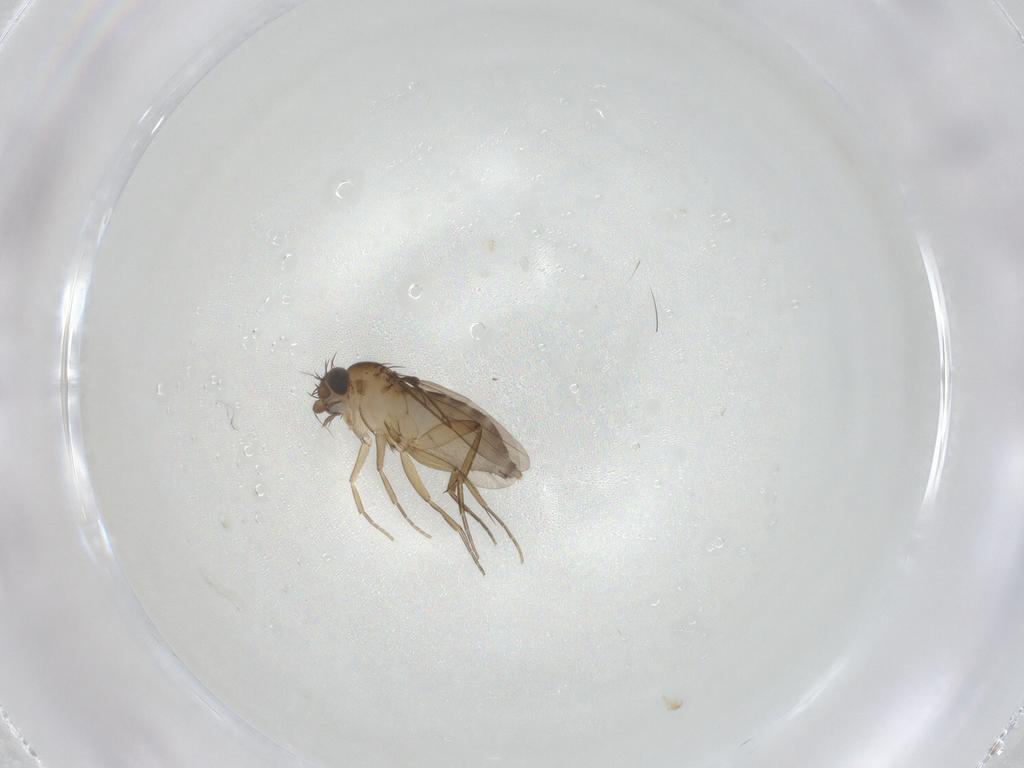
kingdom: Animalia
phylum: Arthropoda
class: Insecta
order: Diptera
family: Phoridae
